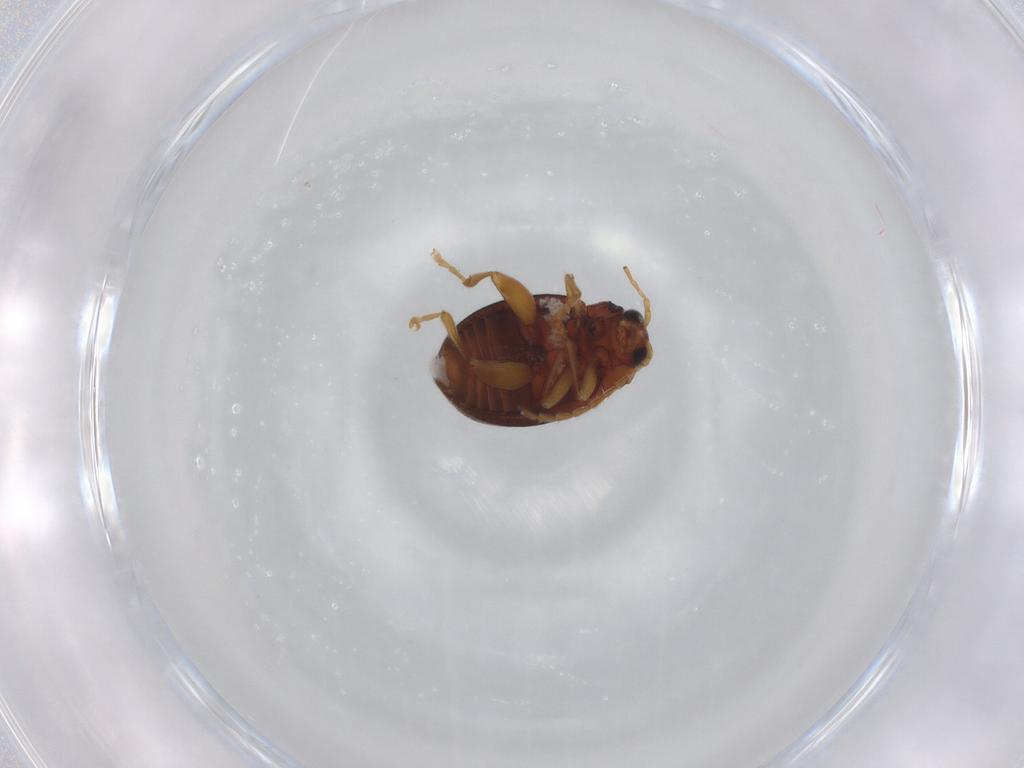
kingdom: Animalia
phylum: Arthropoda
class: Insecta
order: Coleoptera
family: Chrysomelidae
